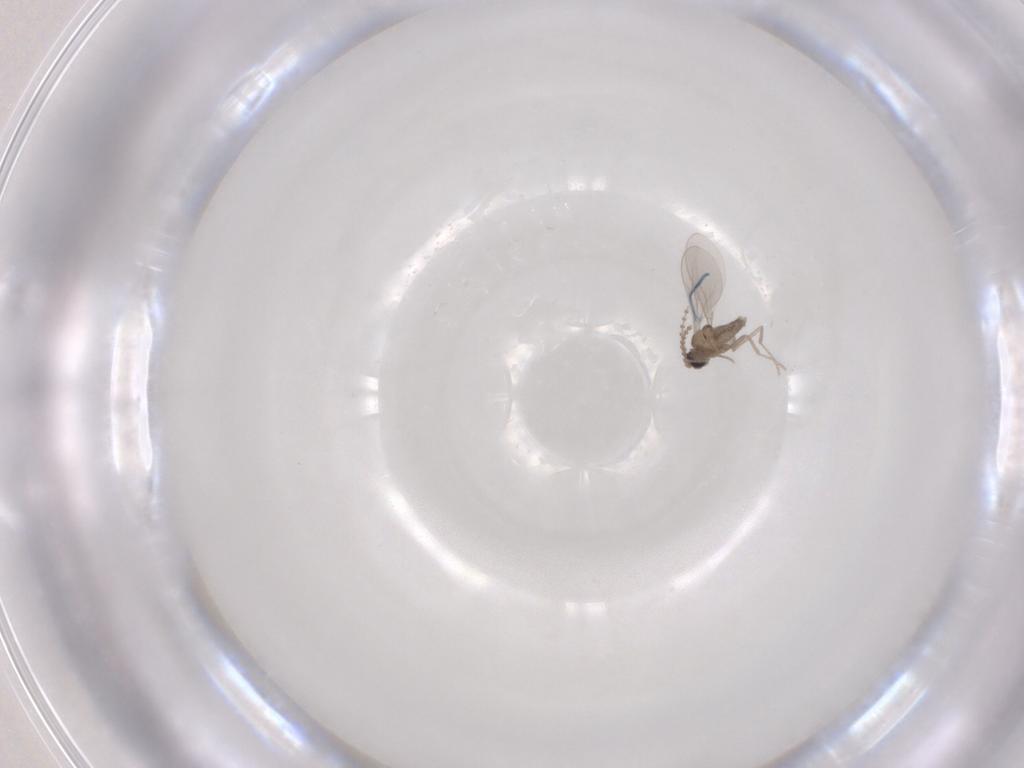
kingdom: Animalia
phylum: Arthropoda
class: Insecta
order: Diptera
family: Cecidomyiidae
